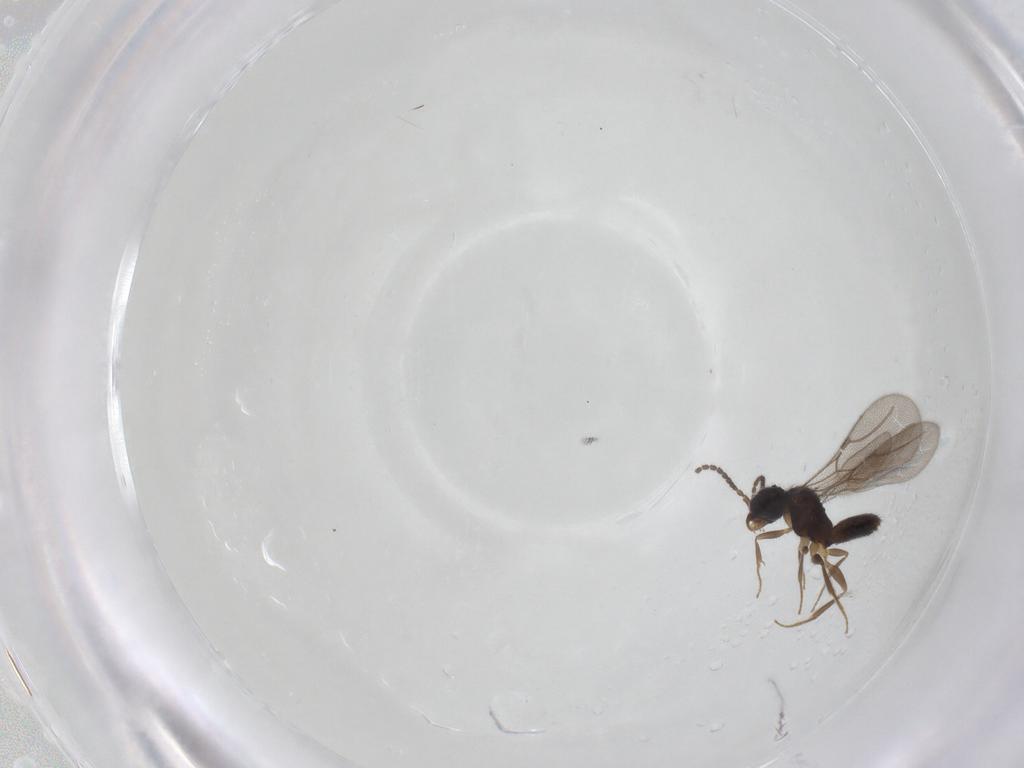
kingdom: Animalia
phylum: Arthropoda
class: Insecta
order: Hymenoptera
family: Bethylidae
